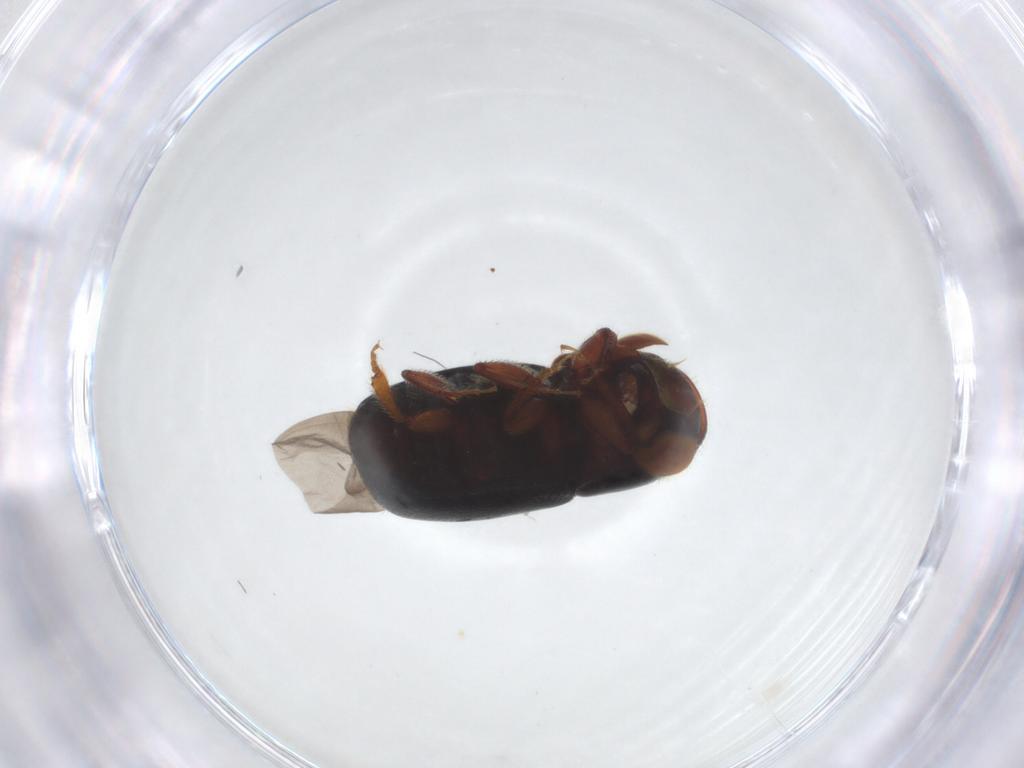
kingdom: Animalia
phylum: Arthropoda
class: Insecta
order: Coleoptera
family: Curculionidae
